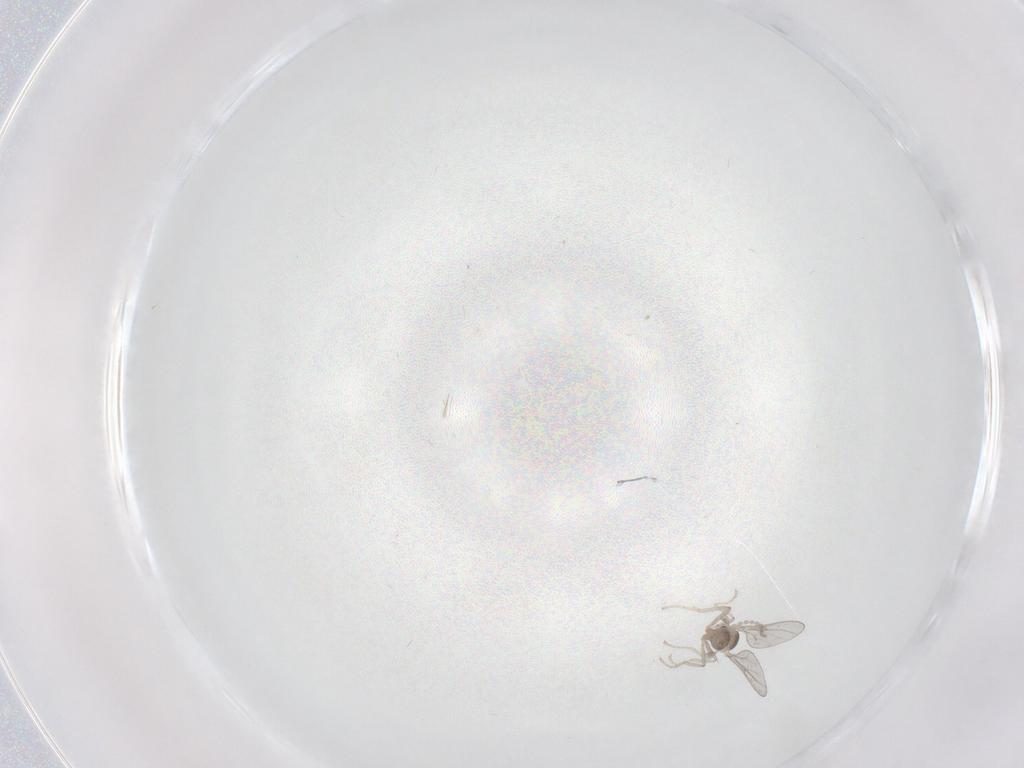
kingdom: Animalia
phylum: Arthropoda
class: Insecta
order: Diptera
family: Cecidomyiidae
